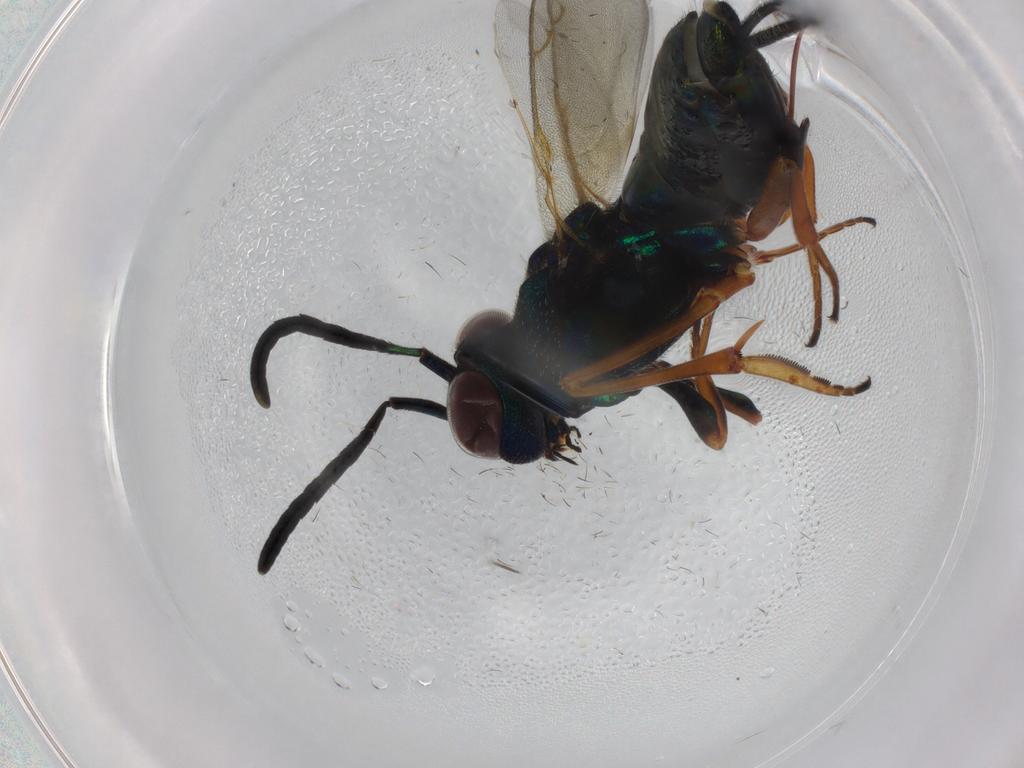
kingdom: Animalia
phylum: Arthropoda
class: Insecta
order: Hymenoptera
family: Eupelmidae
